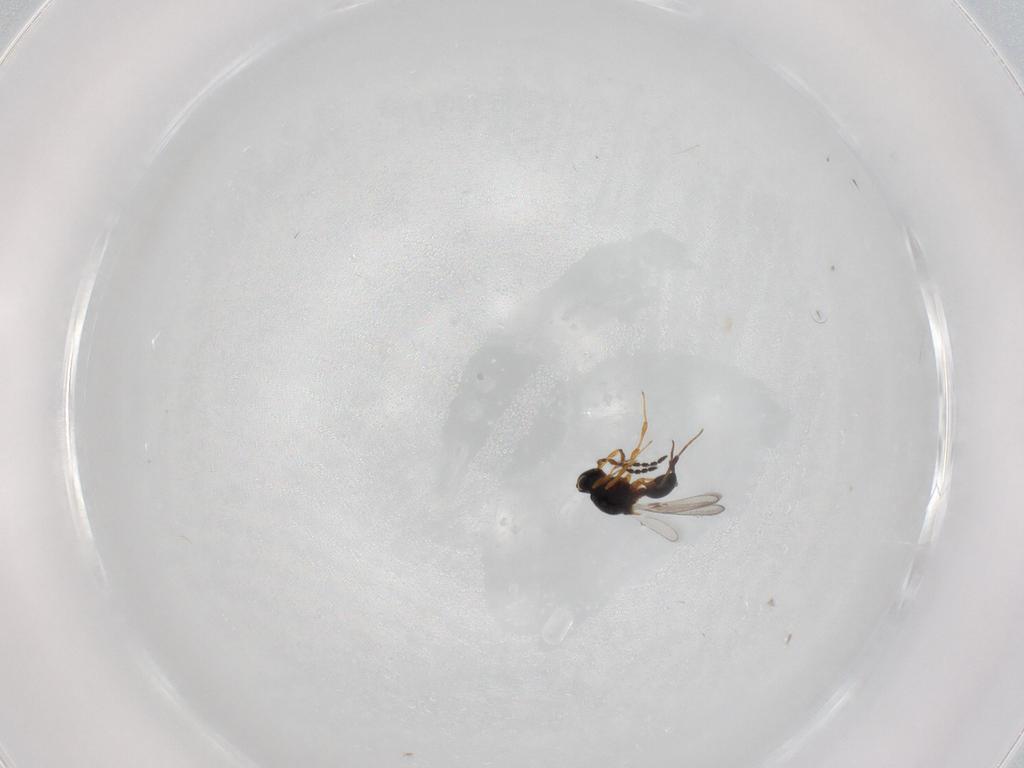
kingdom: Animalia
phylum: Arthropoda
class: Insecta
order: Hymenoptera
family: Platygastridae
